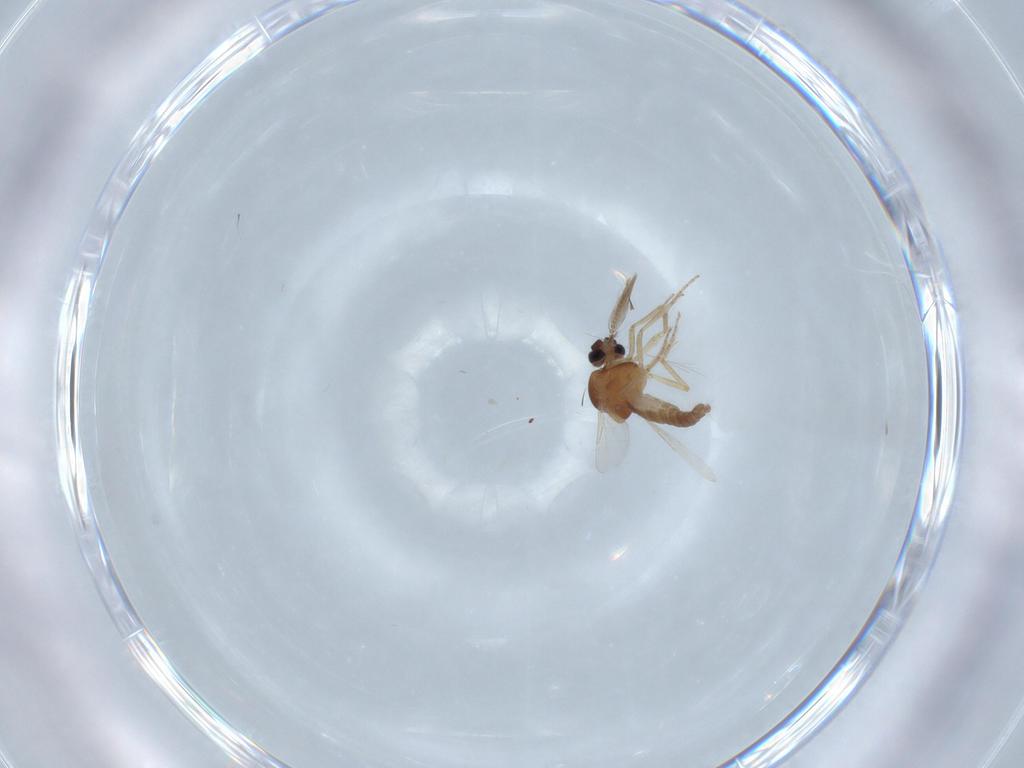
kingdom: Animalia
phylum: Arthropoda
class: Insecta
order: Diptera
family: Ceratopogonidae
